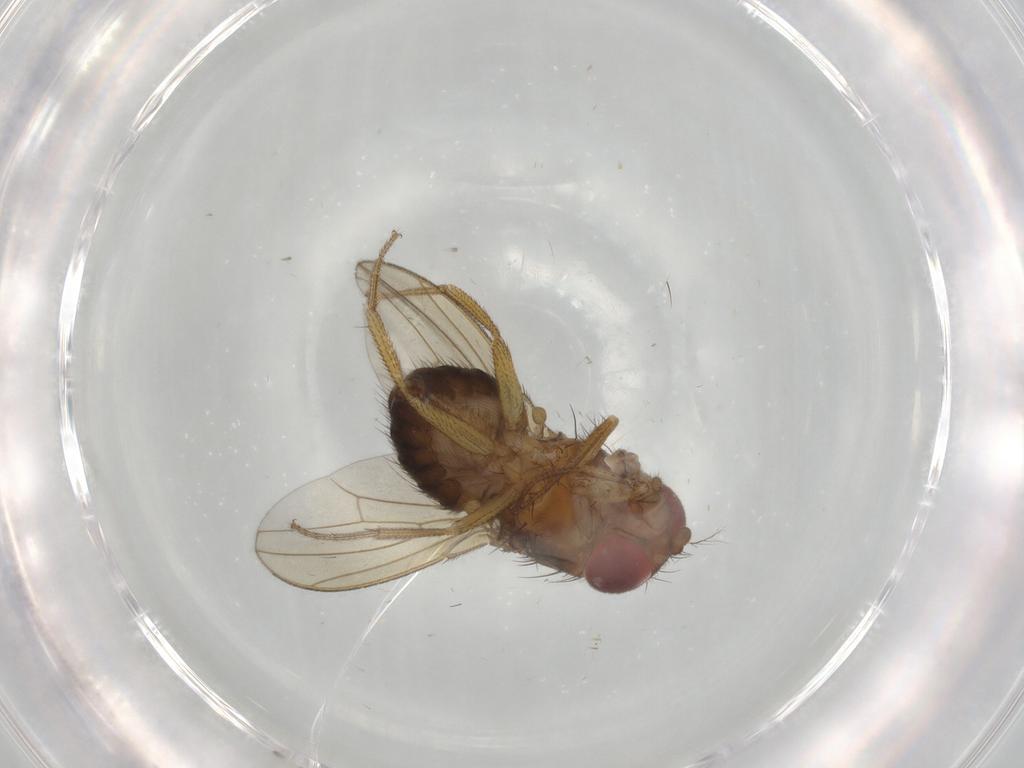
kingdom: Animalia
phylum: Arthropoda
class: Insecta
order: Diptera
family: Drosophilidae
